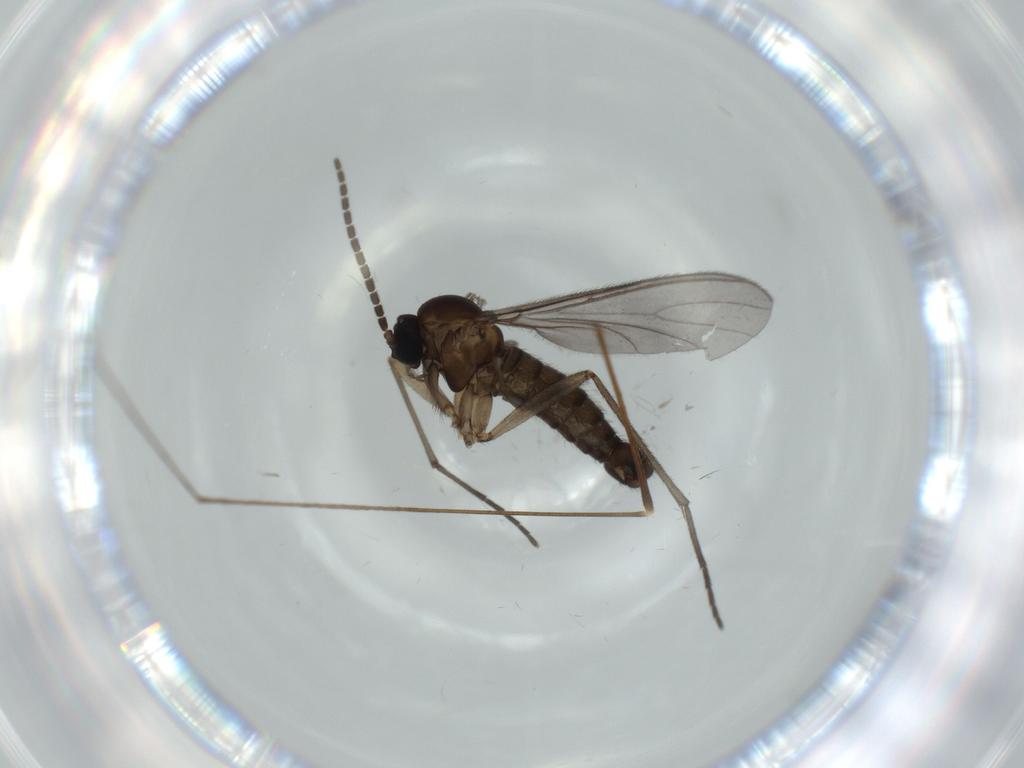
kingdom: Animalia
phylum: Arthropoda
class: Insecta
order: Diptera
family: Sciaridae
